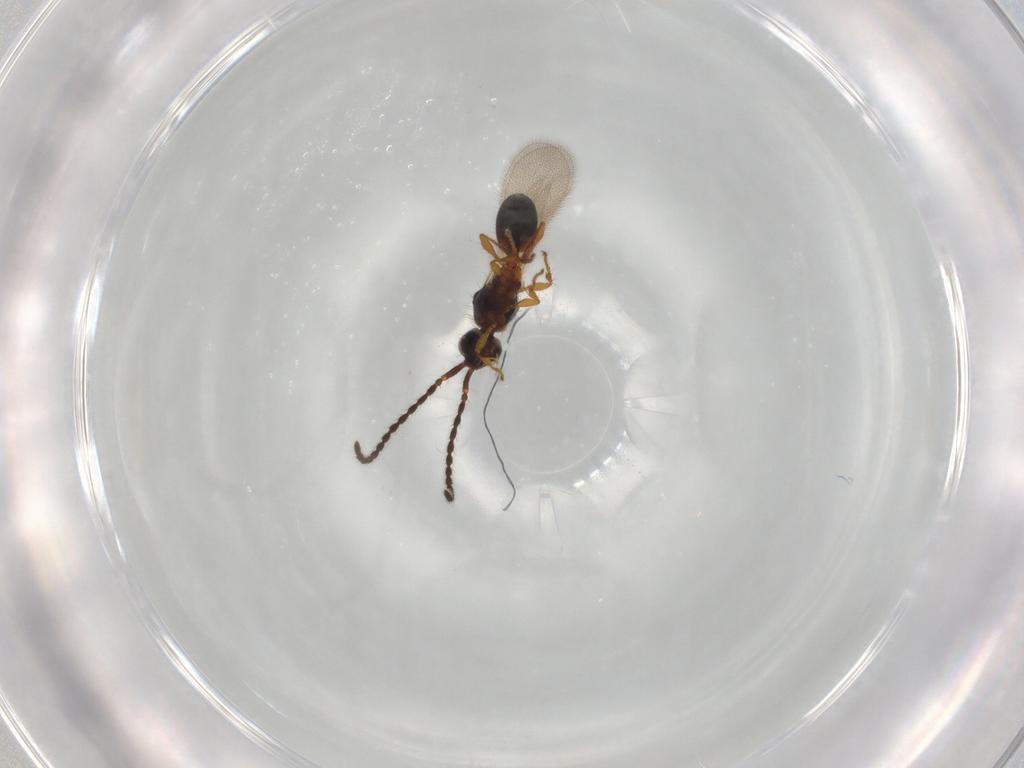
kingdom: Animalia
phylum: Arthropoda
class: Insecta
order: Hymenoptera
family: Diapriidae
